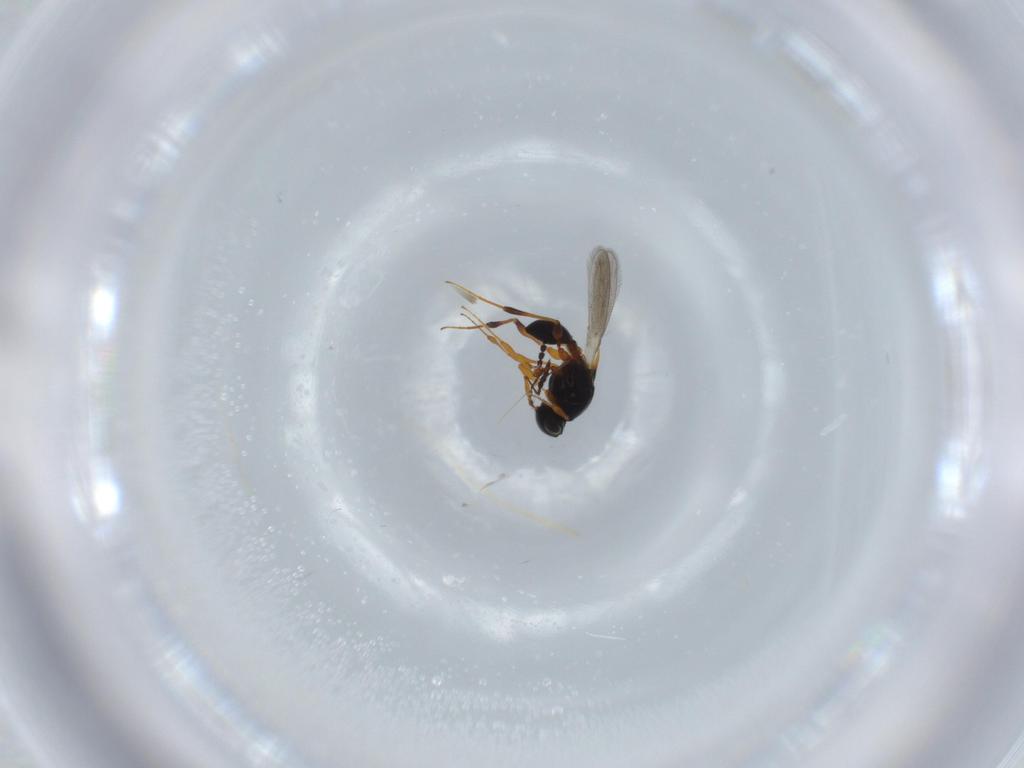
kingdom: Animalia
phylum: Arthropoda
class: Insecta
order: Hymenoptera
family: Platygastridae
